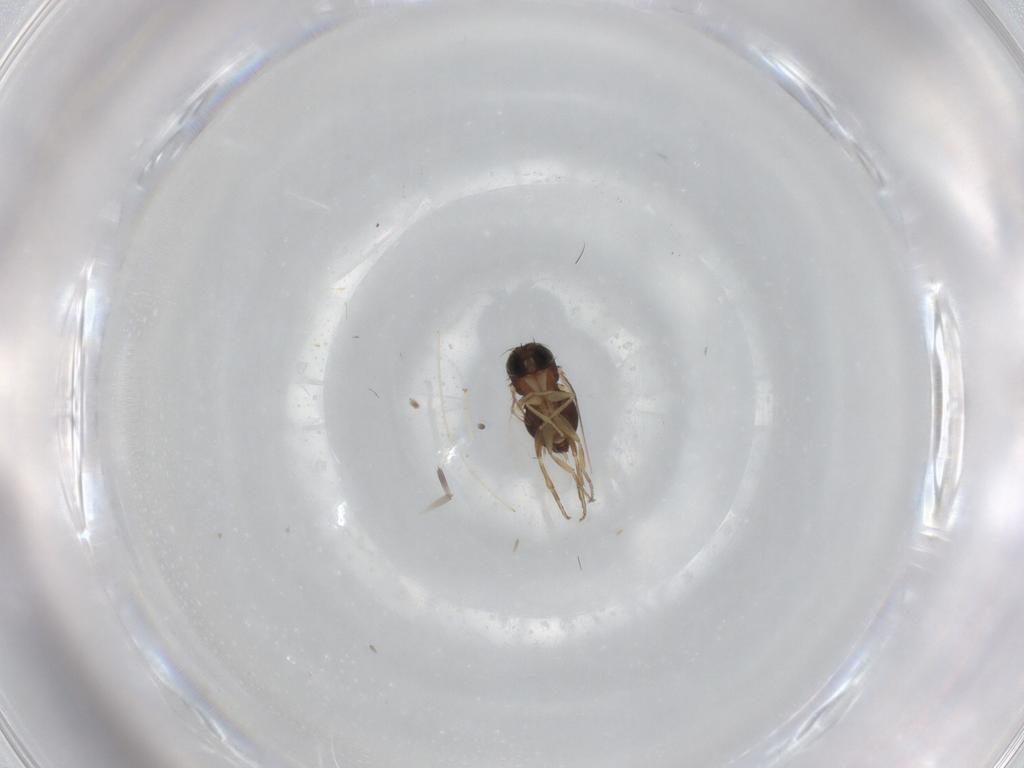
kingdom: Animalia
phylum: Arthropoda
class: Insecta
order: Diptera
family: Phoridae
